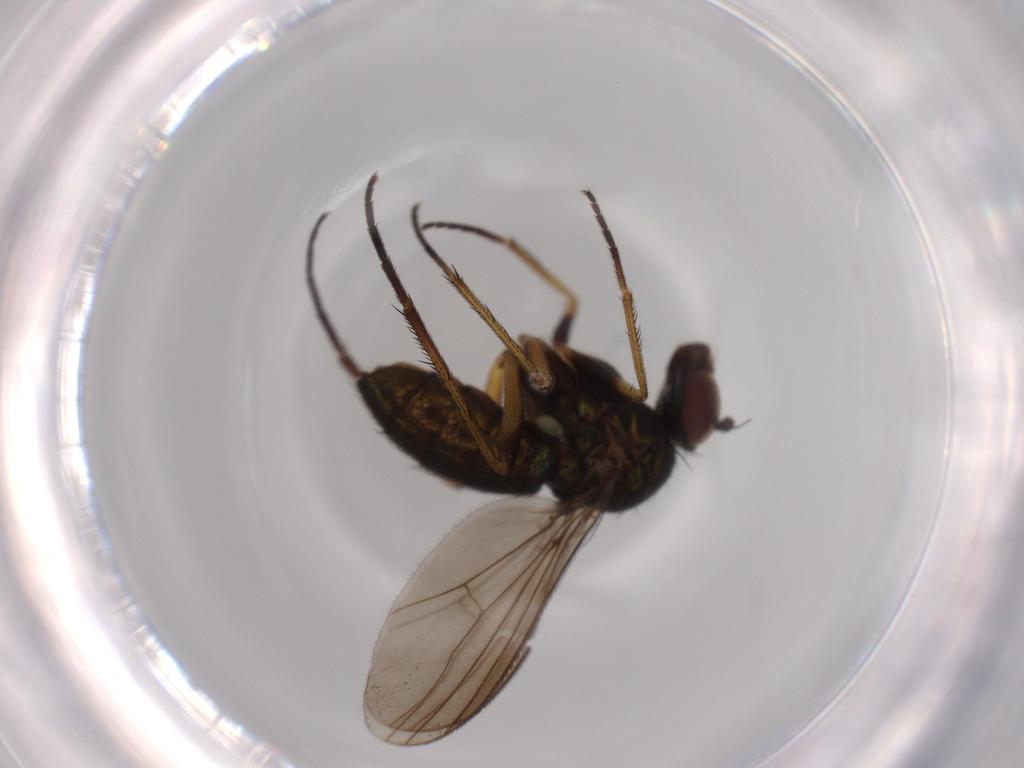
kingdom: Animalia
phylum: Arthropoda
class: Insecta
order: Diptera
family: Dolichopodidae
